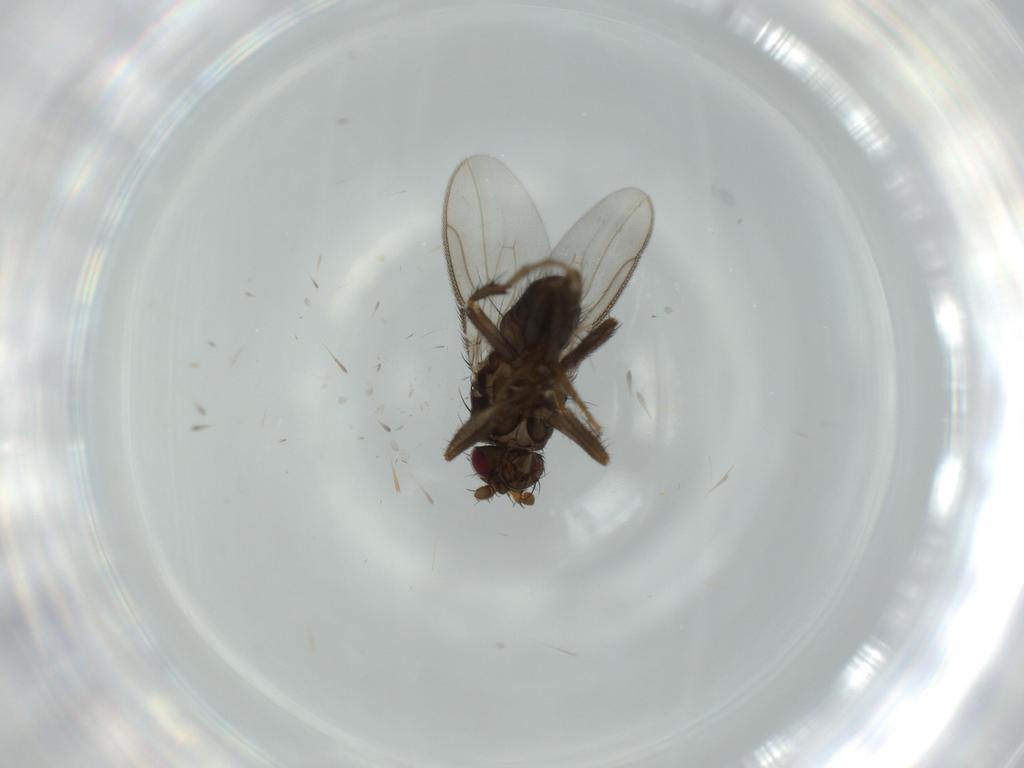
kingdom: Animalia
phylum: Arthropoda
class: Insecta
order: Diptera
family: Sphaeroceridae
